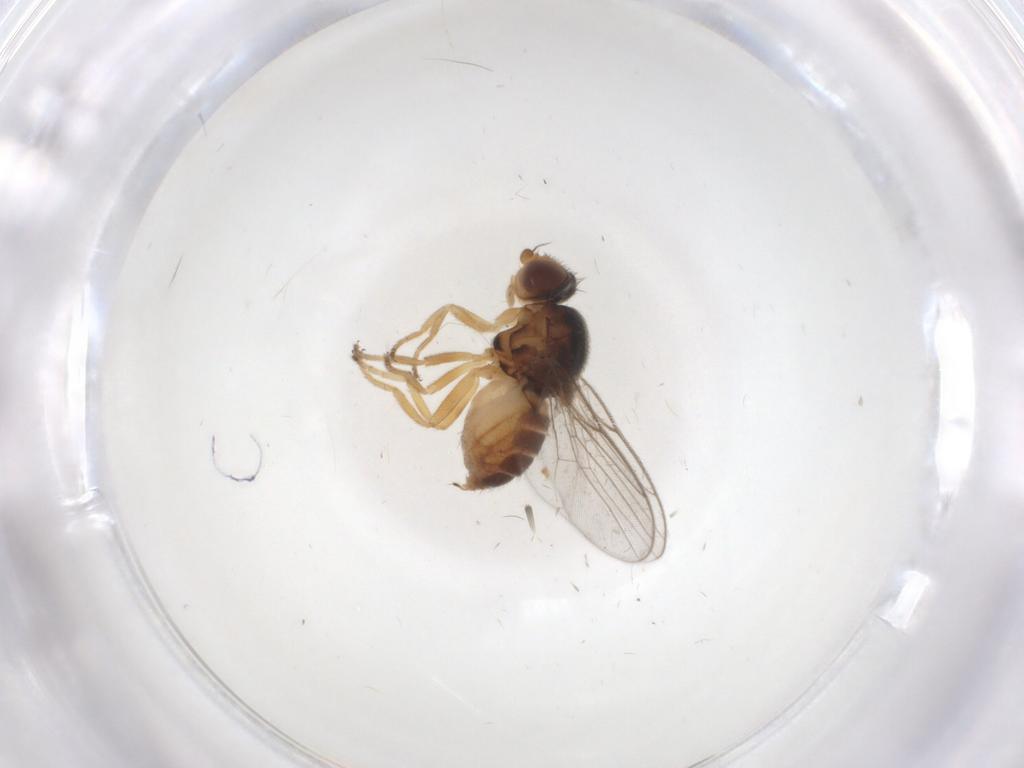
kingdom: Animalia
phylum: Arthropoda
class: Insecta
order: Diptera
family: Chloropidae
